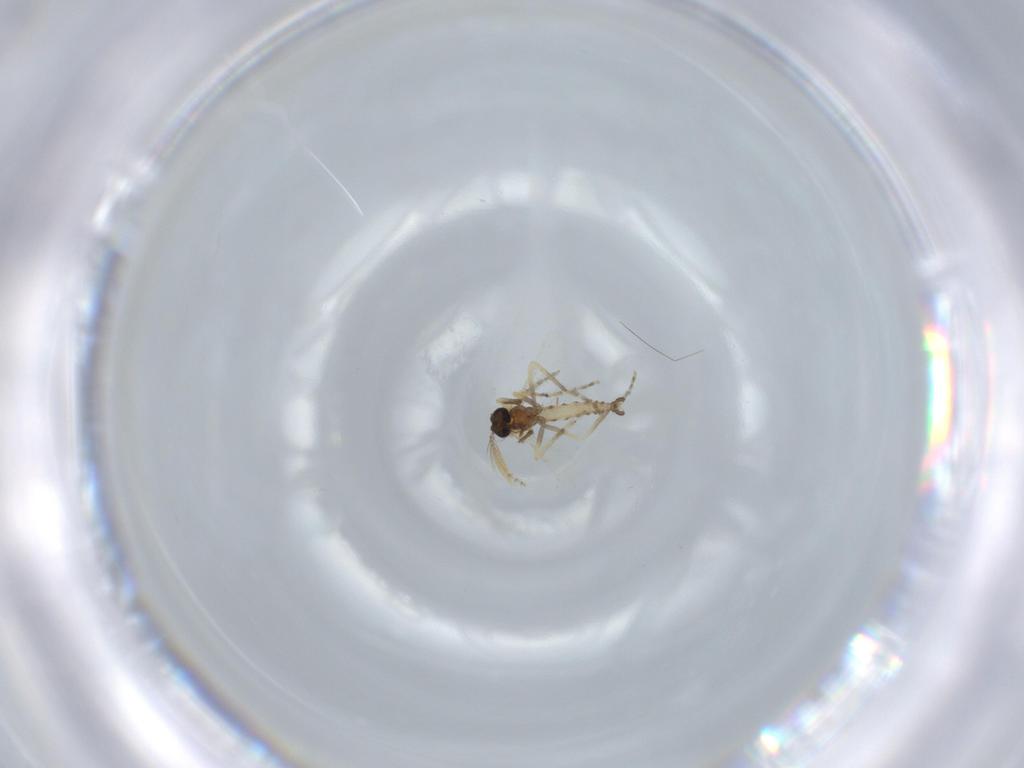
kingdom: Animalia
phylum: Arthropoda
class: Insecta
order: Diptera
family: Ceratopogonidae
